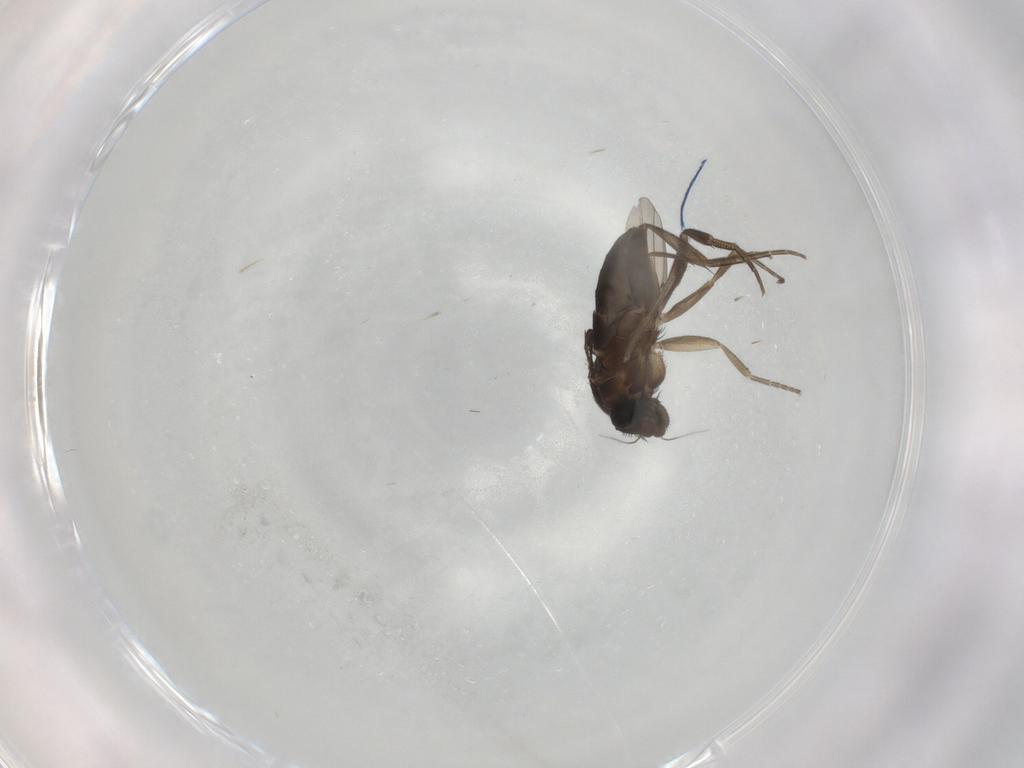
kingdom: Animalia
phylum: Arthropoda
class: Insecta
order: Diptera
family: Phoridae
